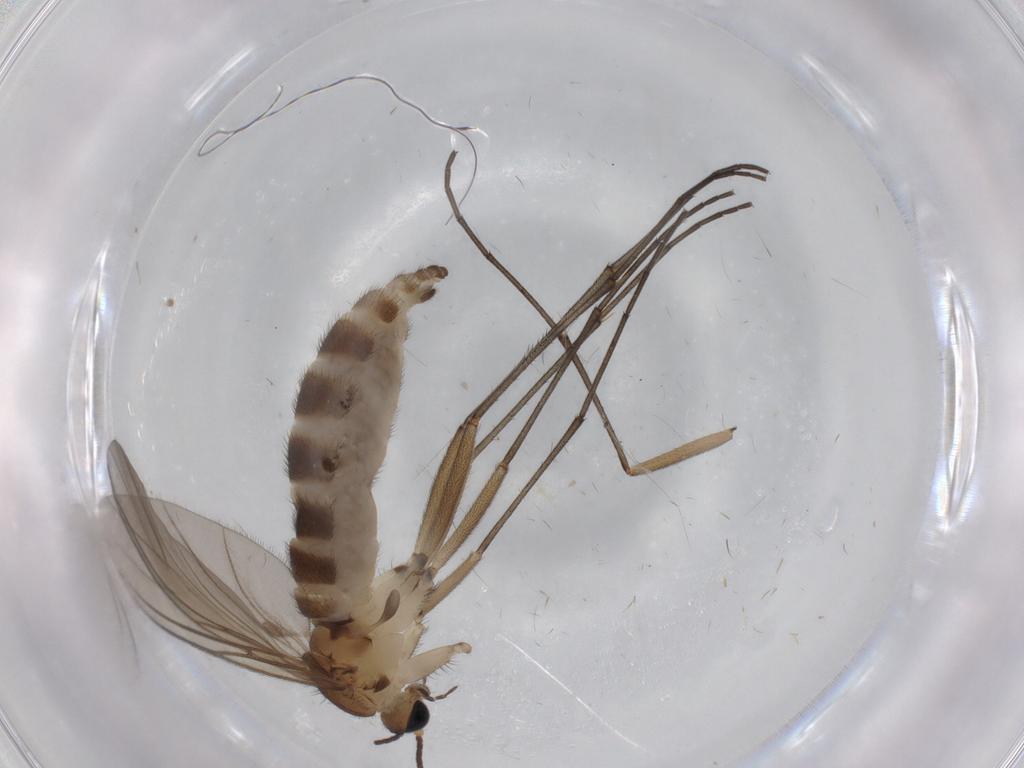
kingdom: Animalia
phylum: Arthropoda
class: Insecta
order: Diptera
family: Sciaridae
